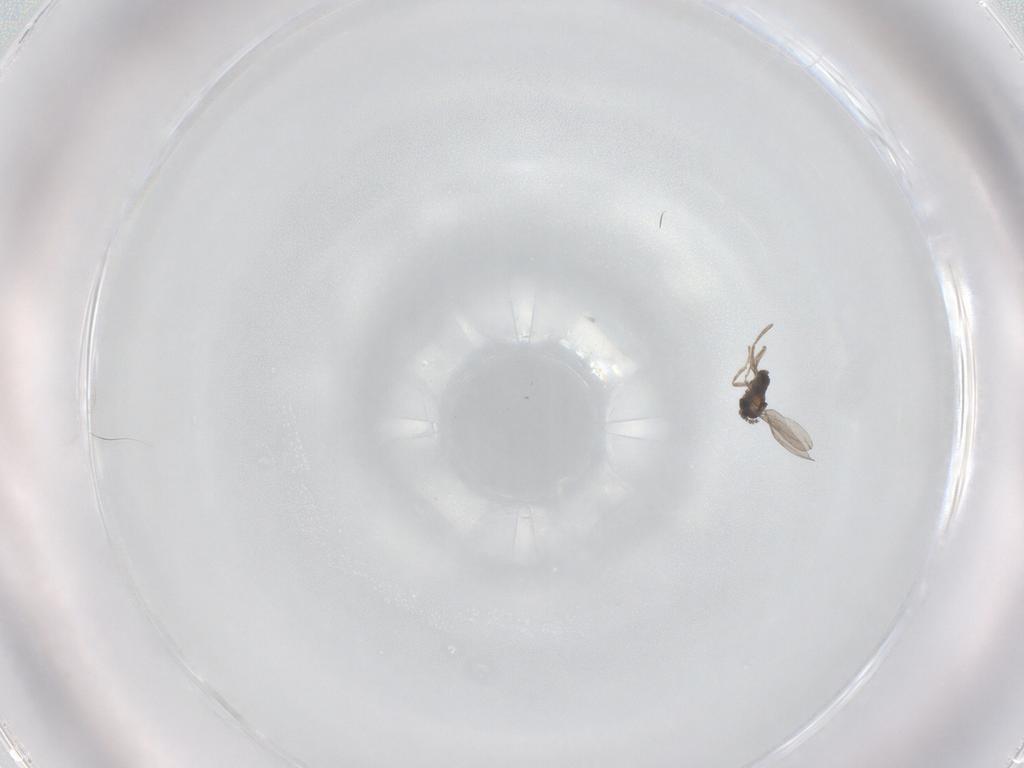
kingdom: Animalia
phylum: Arthropoda
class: Insecta
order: Diptera
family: Ceratopogonidae
